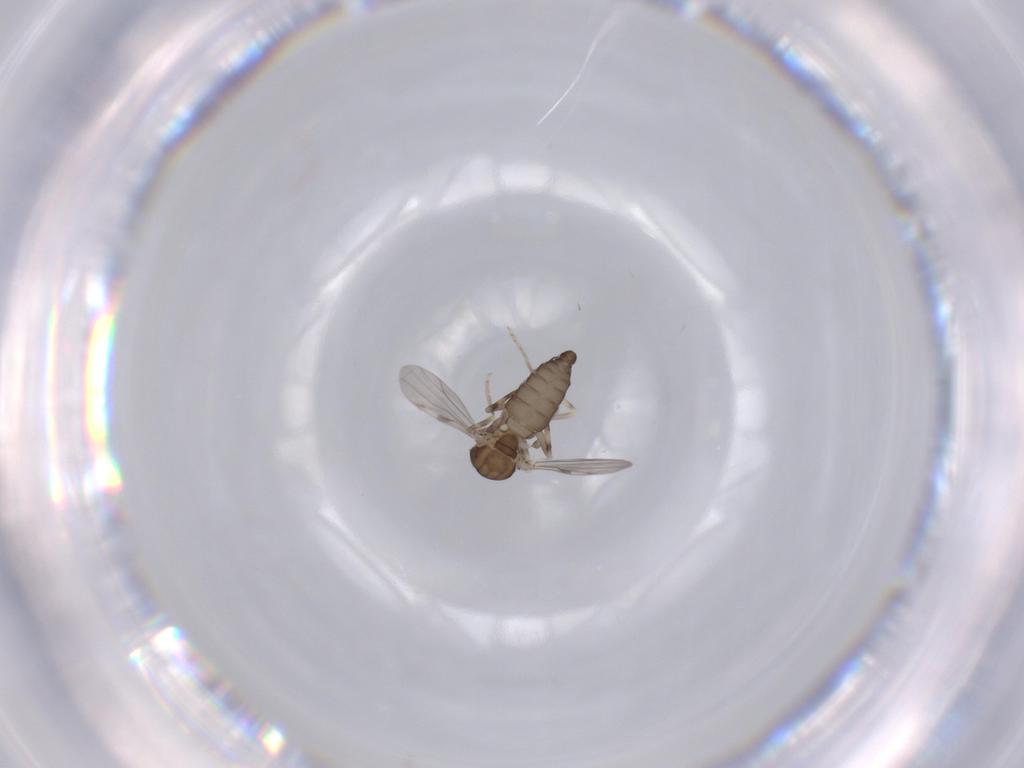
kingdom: Animalia
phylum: Arthropoda
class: Insecta
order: Diptera
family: Ceratopogonidae
